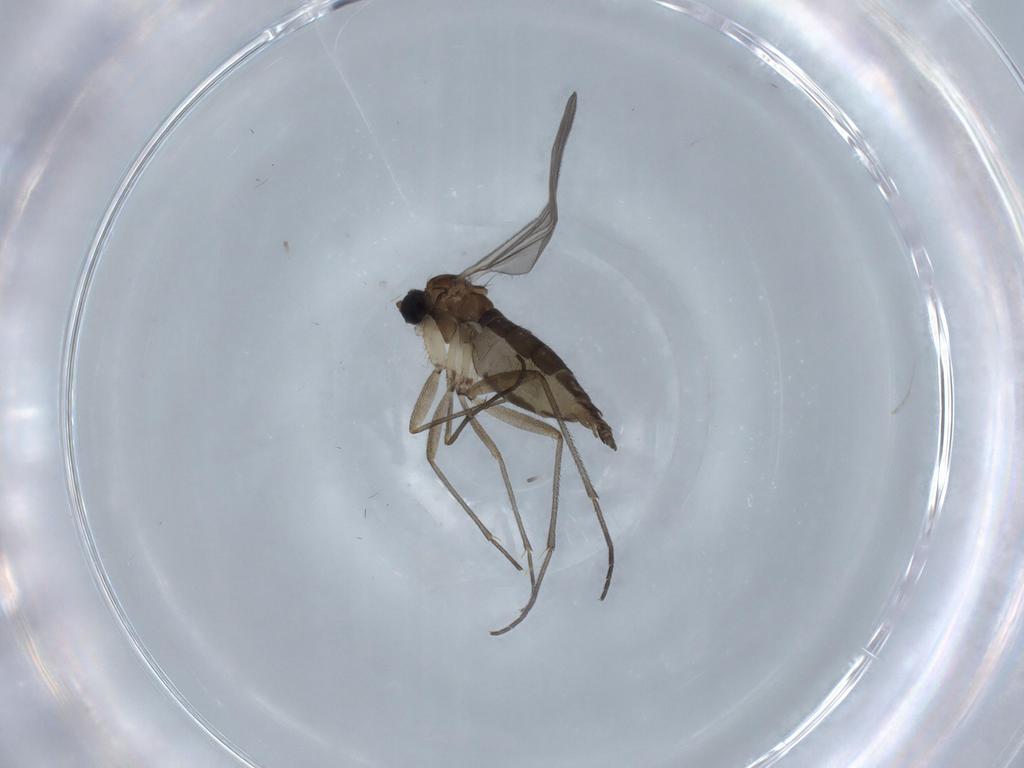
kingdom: Animalia
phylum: Arthropoda
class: Insecta
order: Diptera
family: Sciaridae
